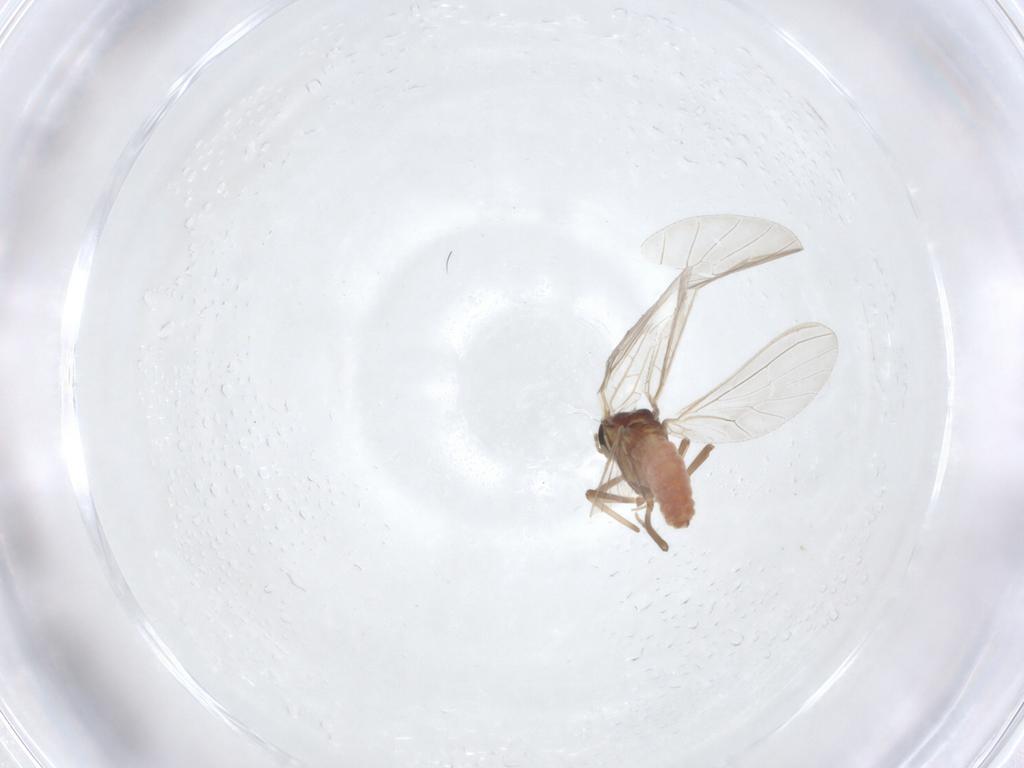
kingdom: Animalia
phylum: Arthropoda
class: Insecta
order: Neuroptera
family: Coniopterygidae
